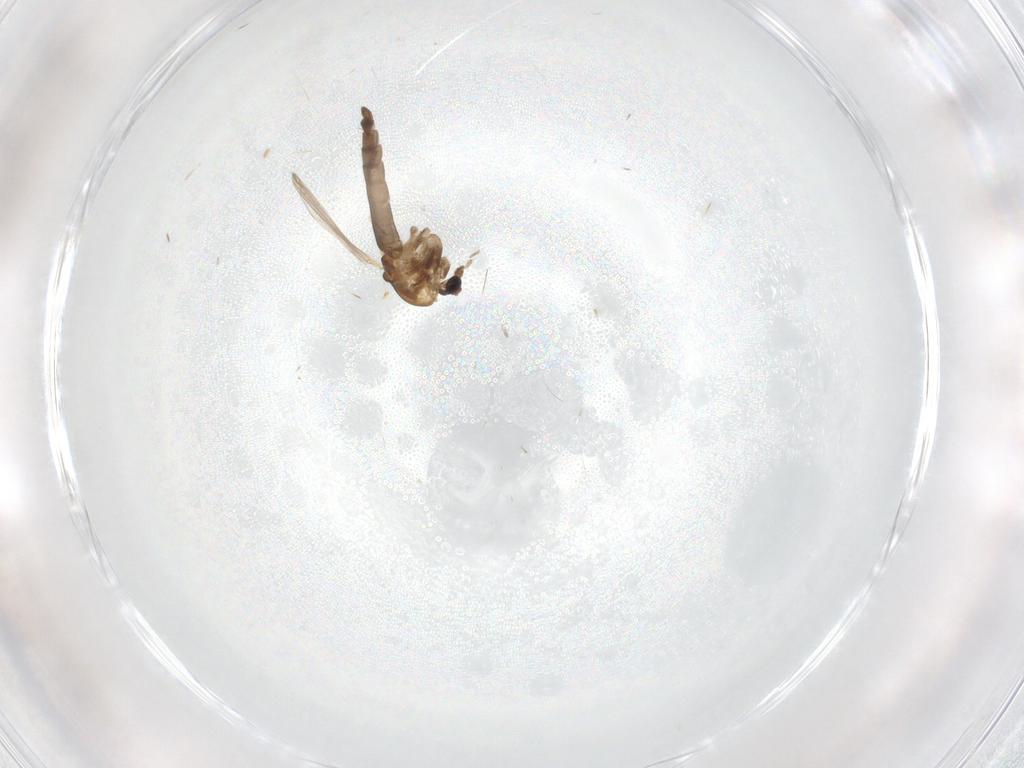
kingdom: Animalia
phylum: Arthropoda
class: Insecta
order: Diptera
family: Chironomidae
